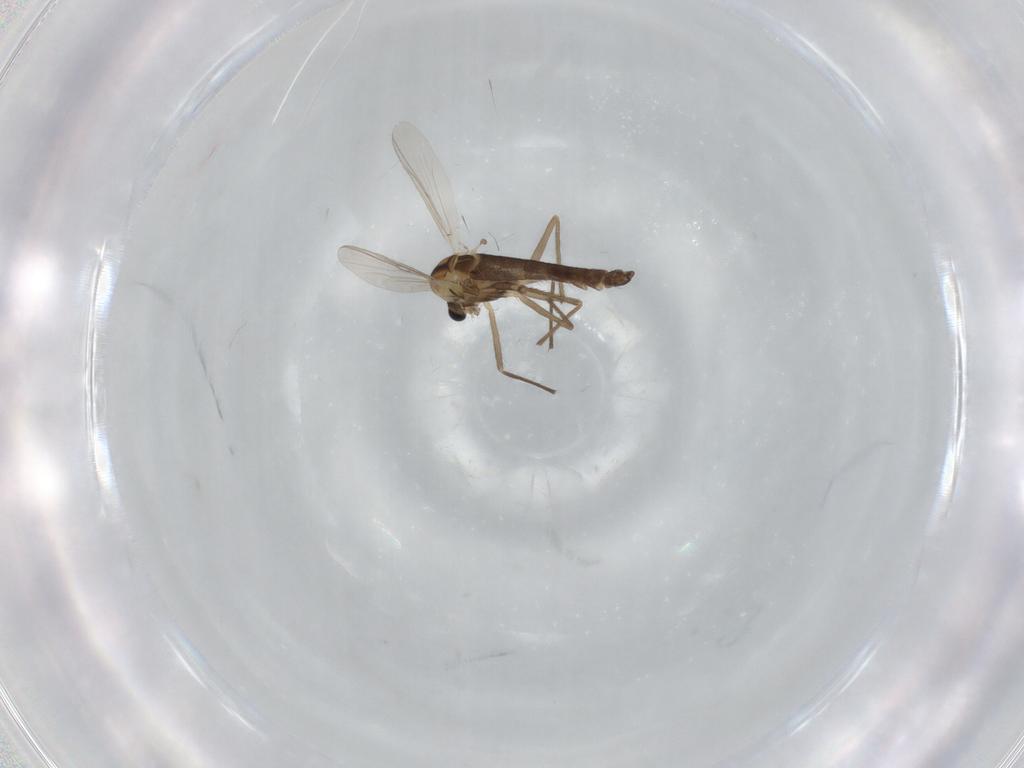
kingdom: Animalia
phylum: Arthropoda
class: Insecta
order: Diptera
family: Chironomidae
